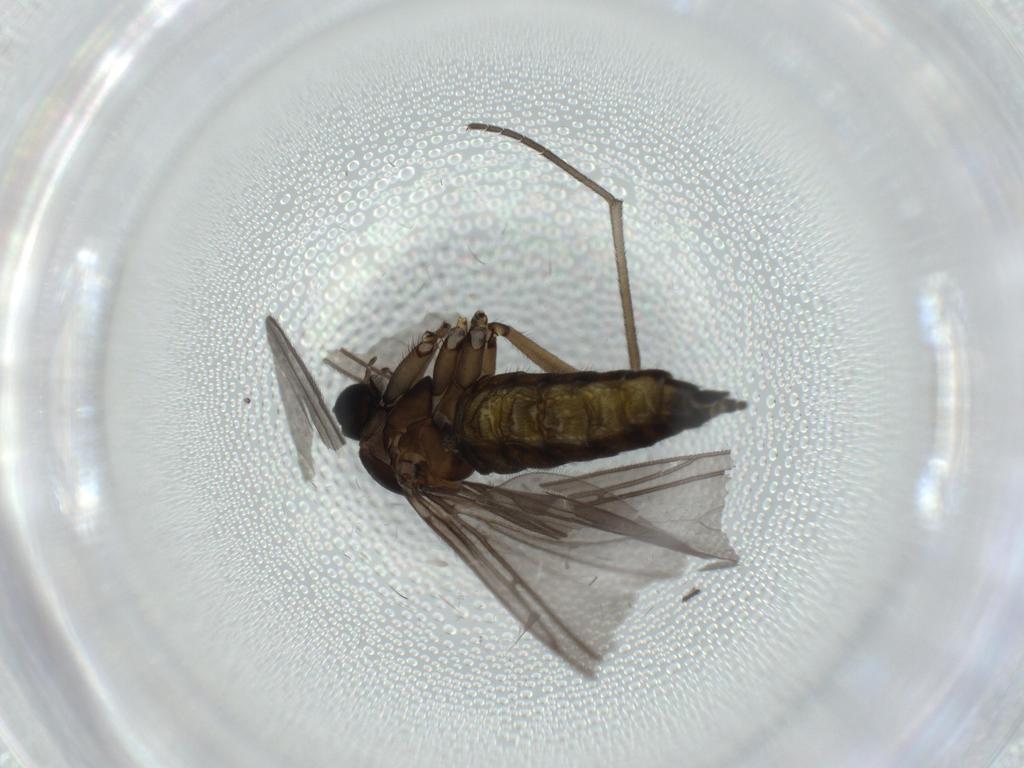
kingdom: Animalia
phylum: Arthropoda
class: Insecta
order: Diptera
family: Sciaridae
